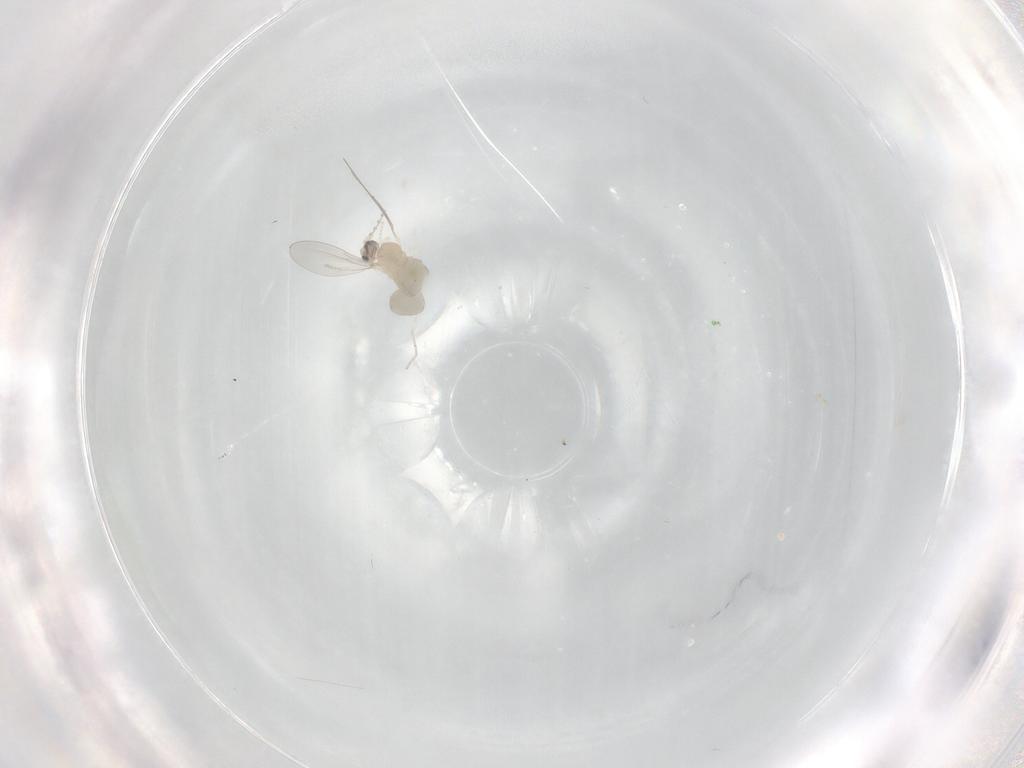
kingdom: Animalia
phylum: Arthropoda
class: Insecta
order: Diptera
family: Cecidomyiidae
